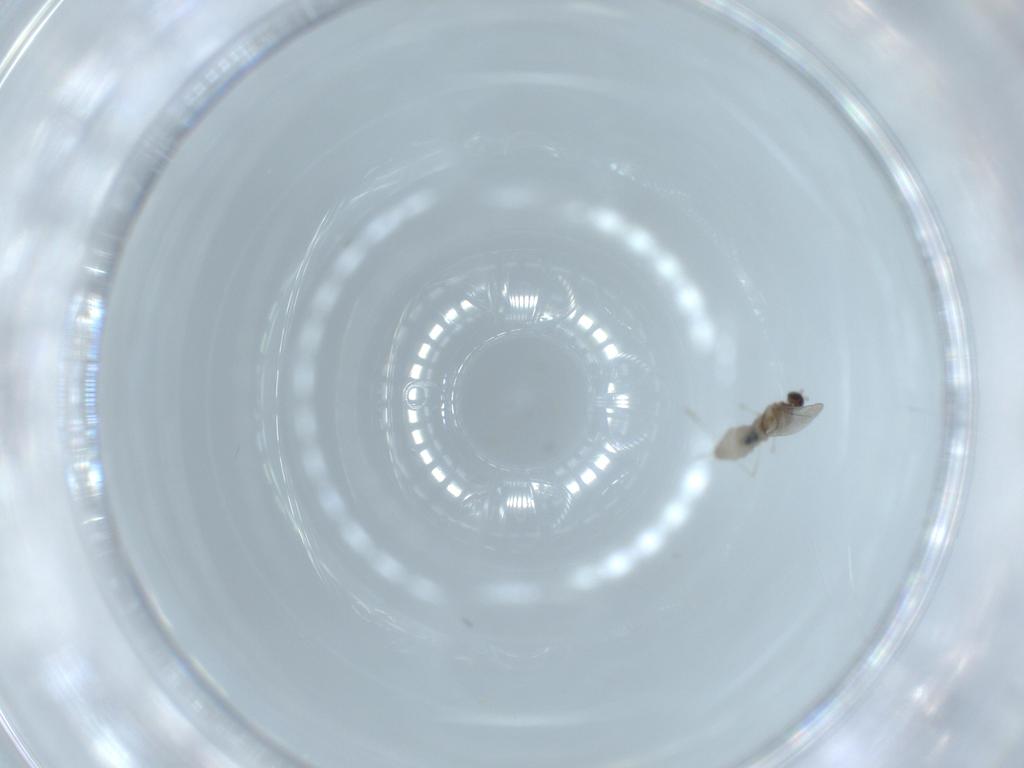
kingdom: Animalia
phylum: Arthropoda
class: Insecta
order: Diptera
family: Cecidomyiidae
